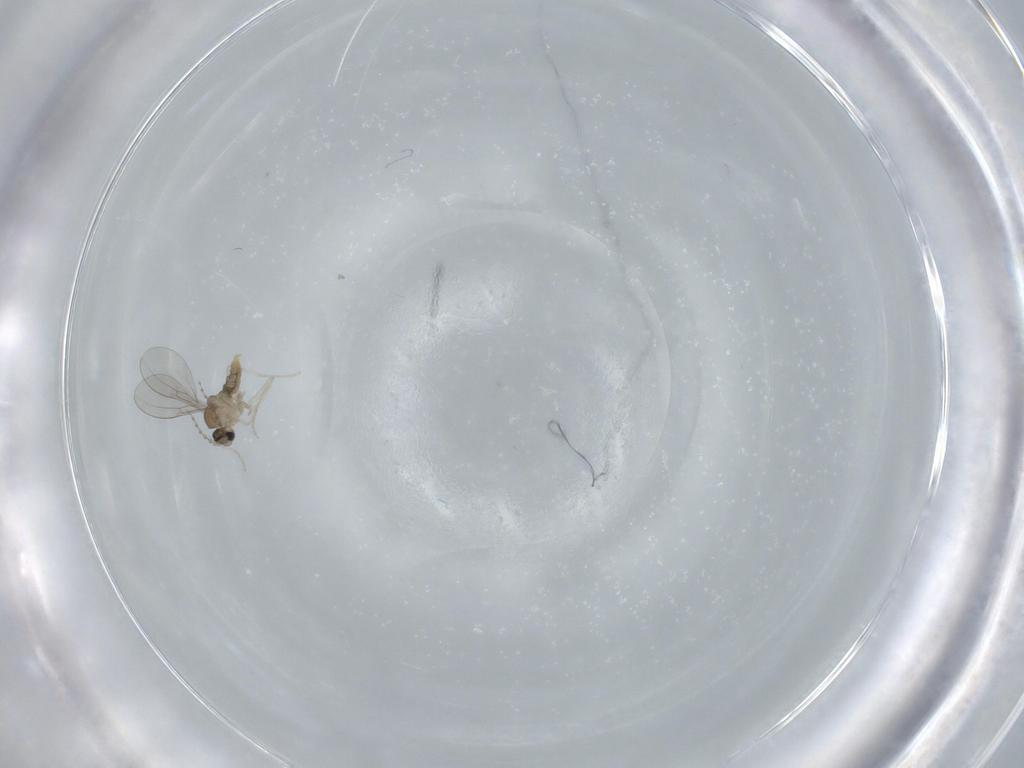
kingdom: Animalia
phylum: Arthropoda
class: Insecta
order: Diptera
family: Cecidomyiidae
